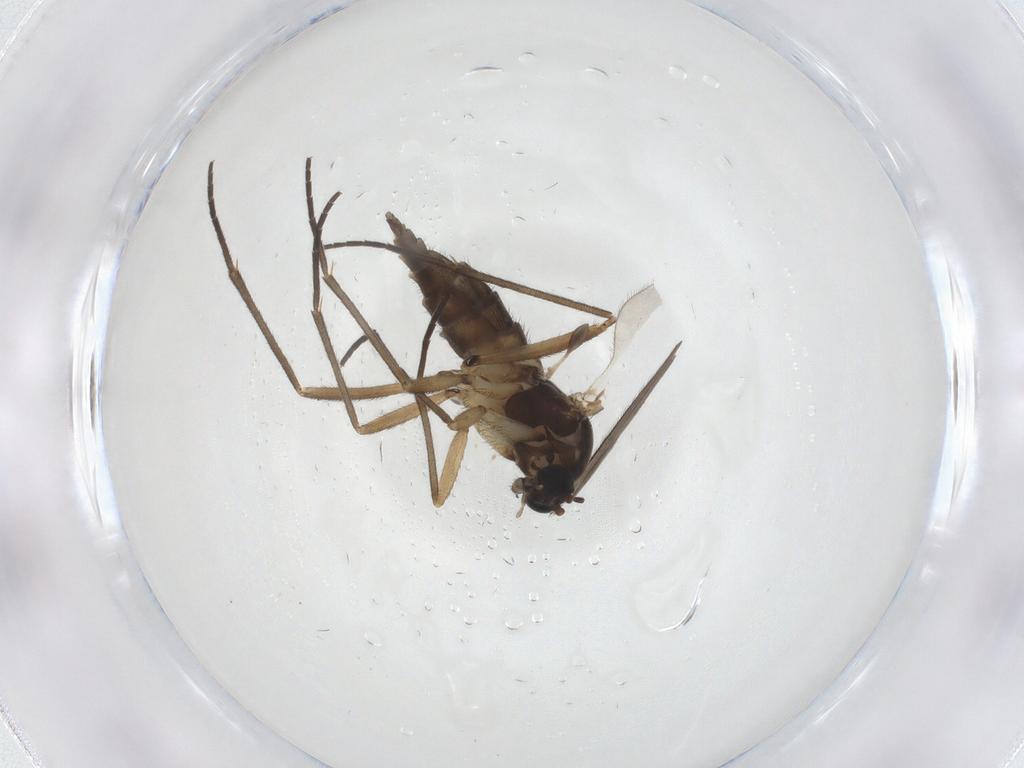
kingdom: Animalia
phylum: Arthropoda
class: Insecta
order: Diptera
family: Sciaridae
